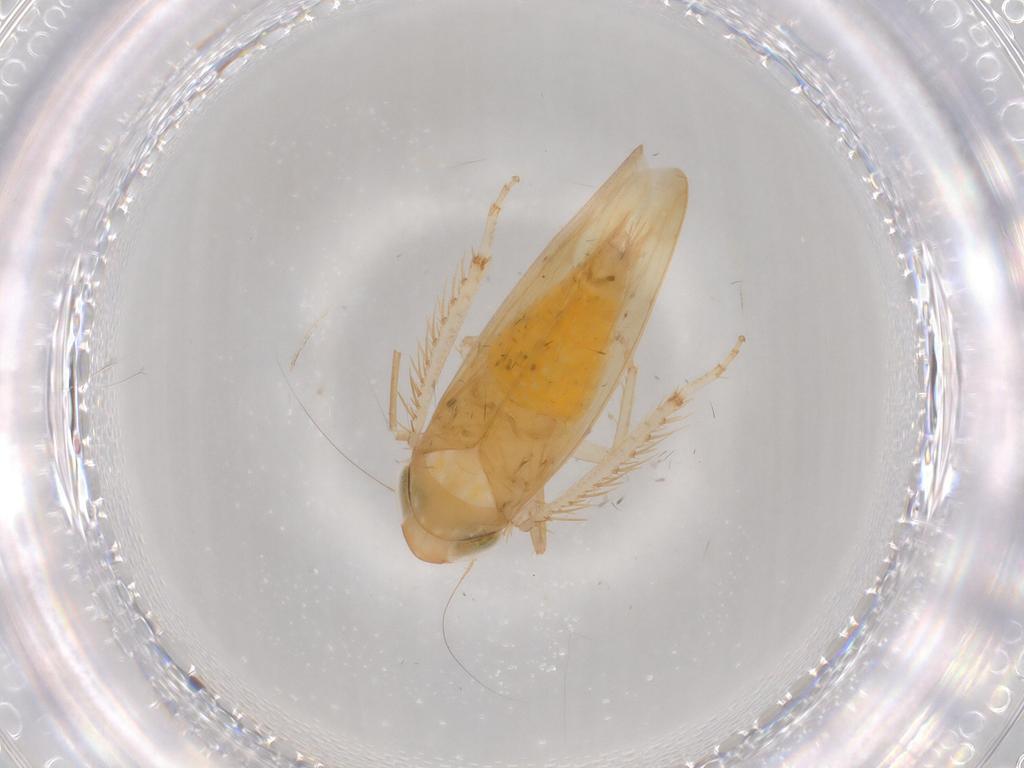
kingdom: Animalia
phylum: Arthropoda
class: Insecta
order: Hemiptera
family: Cicadellidae
